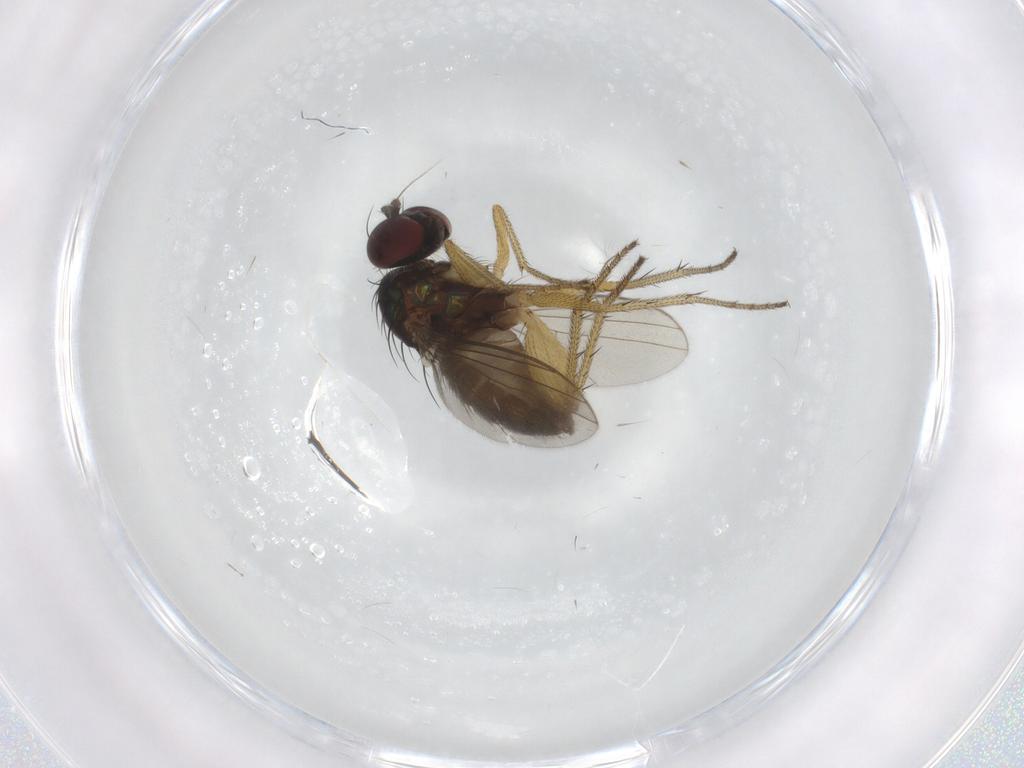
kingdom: Animalia
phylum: Arthropoda
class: Insecta
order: Diptera
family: Dolichopodidae
